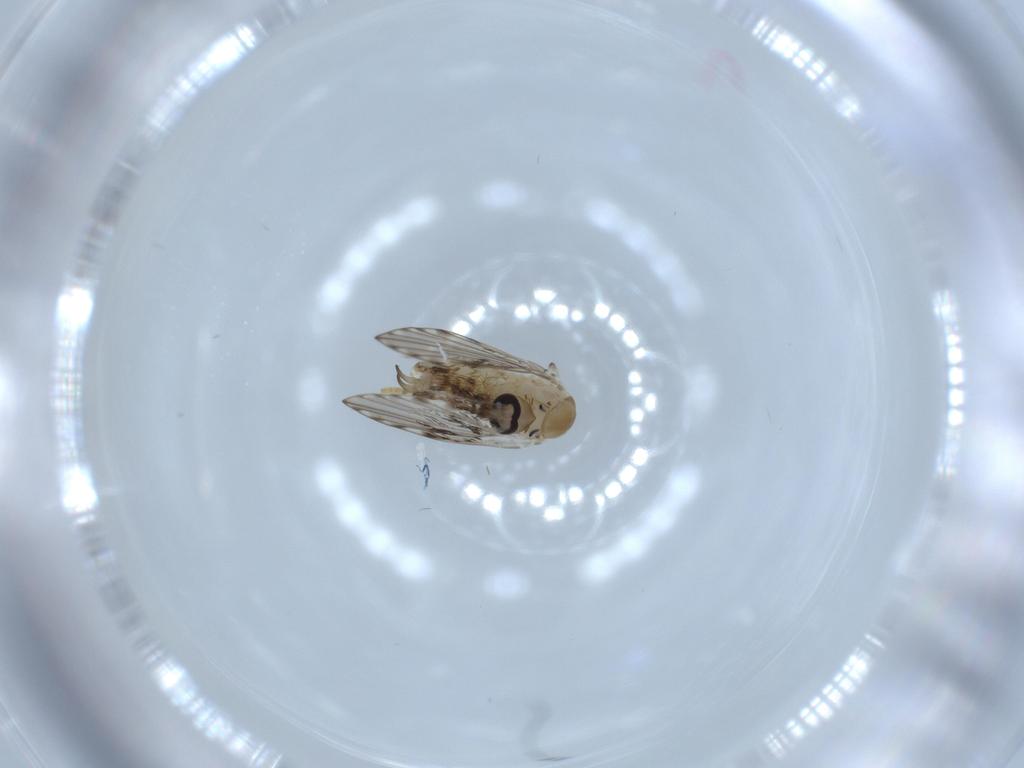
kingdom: Animalia
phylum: Arthropoda
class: Insecta
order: Diptera
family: Psychodidae
